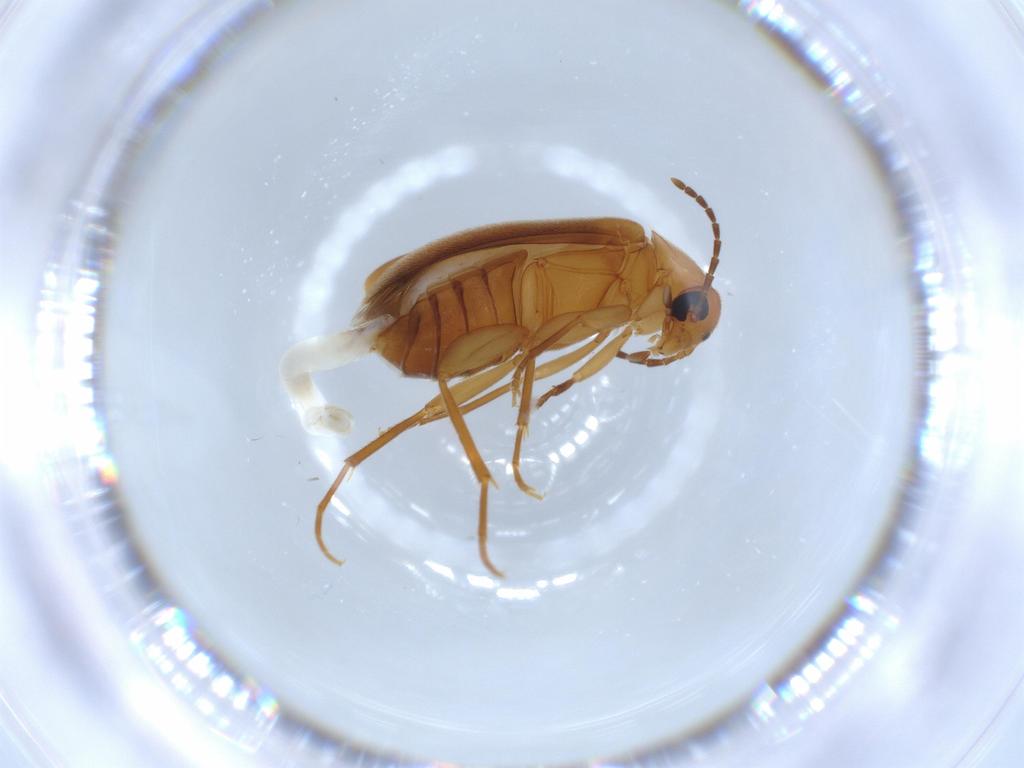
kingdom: Animalia
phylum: Arthropoda
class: Insecta
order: Coleoptera
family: Scraptiidae
